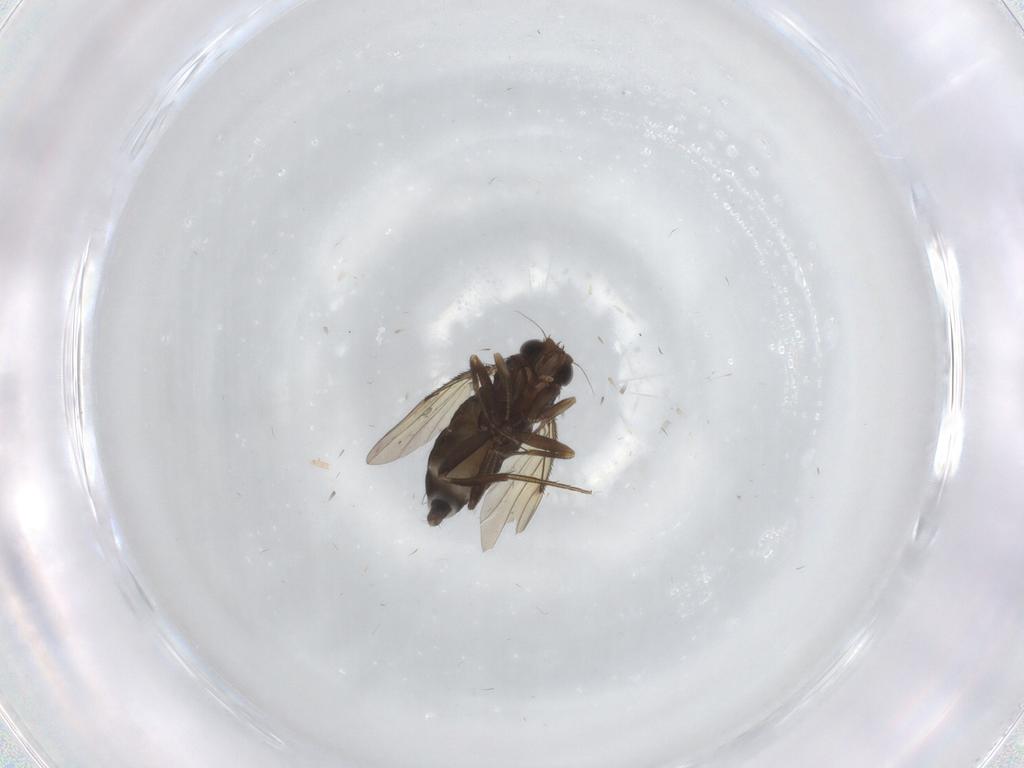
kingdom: Animalia
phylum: Arthropoda
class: Insecta
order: Diptera
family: Phoridae
